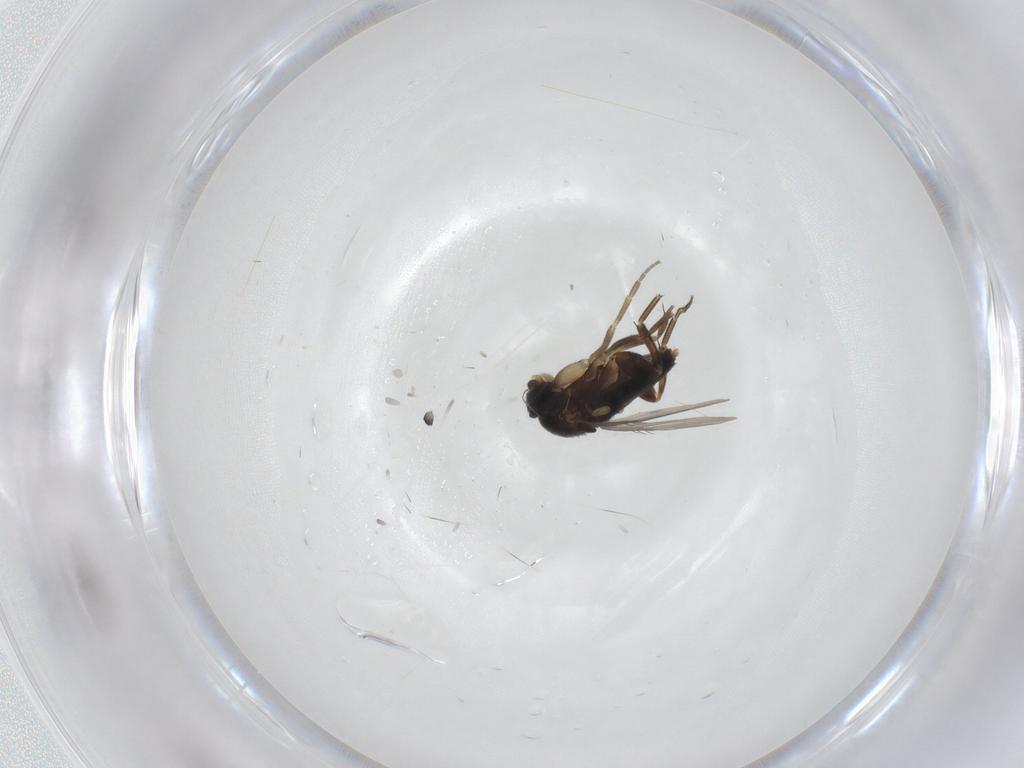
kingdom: Animalia
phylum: Arthropoda
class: Insecta
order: Diptera
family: Phoridae
